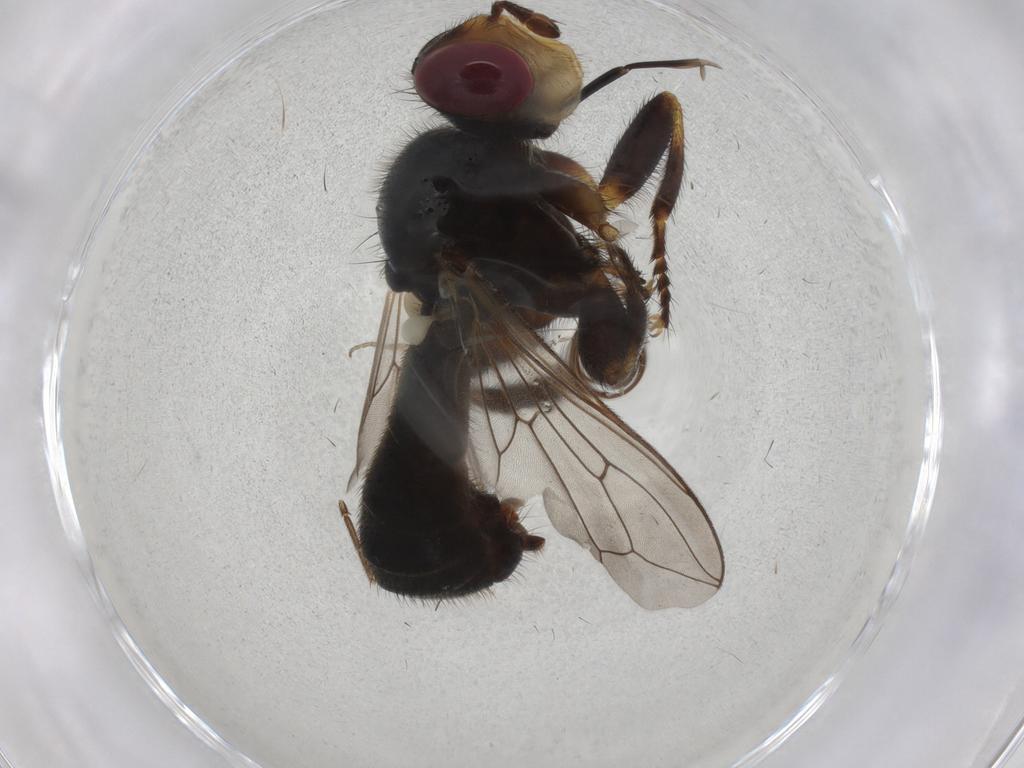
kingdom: Animalia
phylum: Arthropoda
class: Insecta
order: Diptera
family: Conopidae
